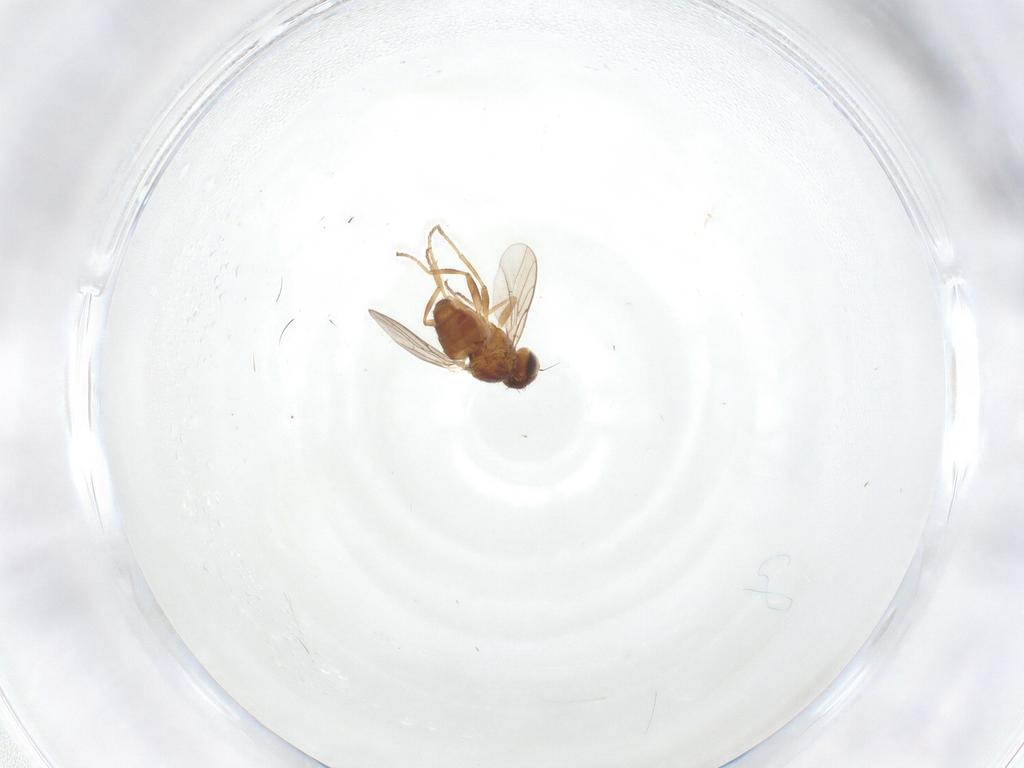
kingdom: Animalia
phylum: Arthropoda
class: Insecta
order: Diptera
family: Chloropidae
